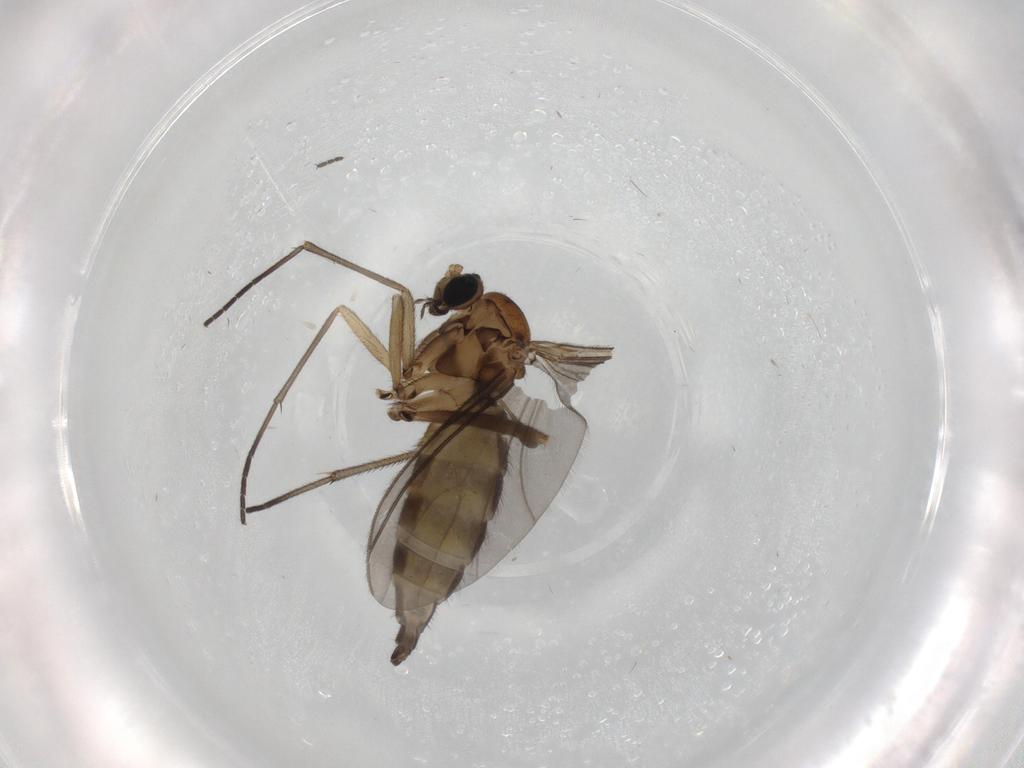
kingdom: Animalia
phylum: Arthropoda
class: Insecta
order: Diptera
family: Sciaridae
